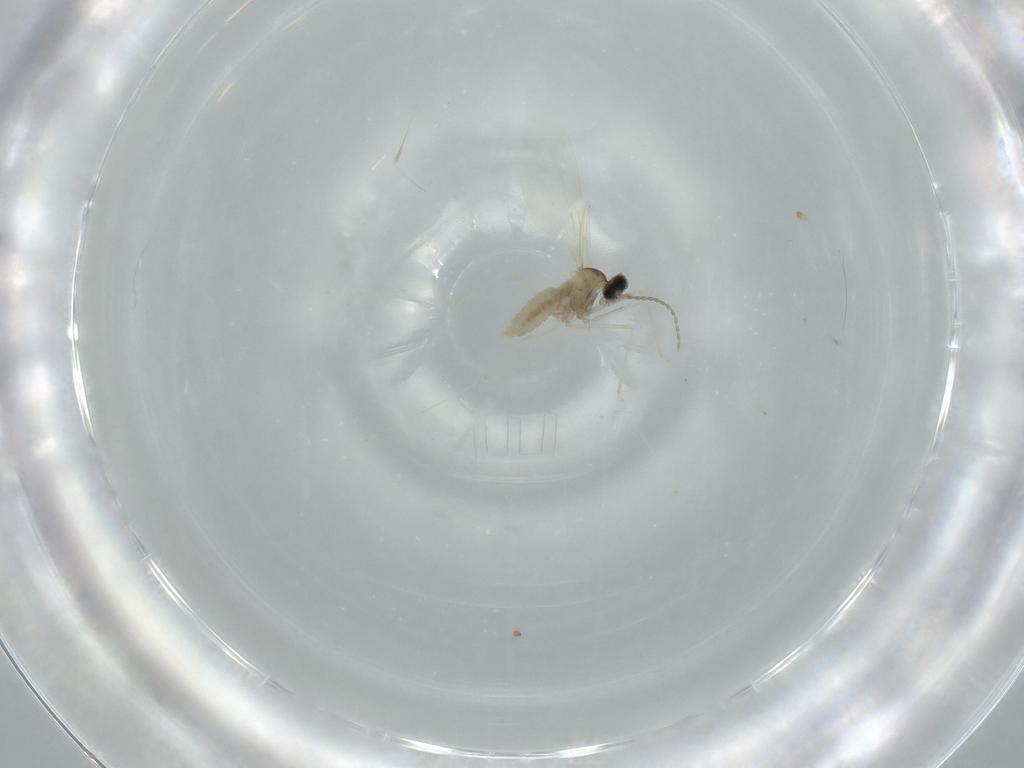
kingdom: Animalia
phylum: Arthropoda
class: Insecta
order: Diptera
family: Cecidomyiidae
